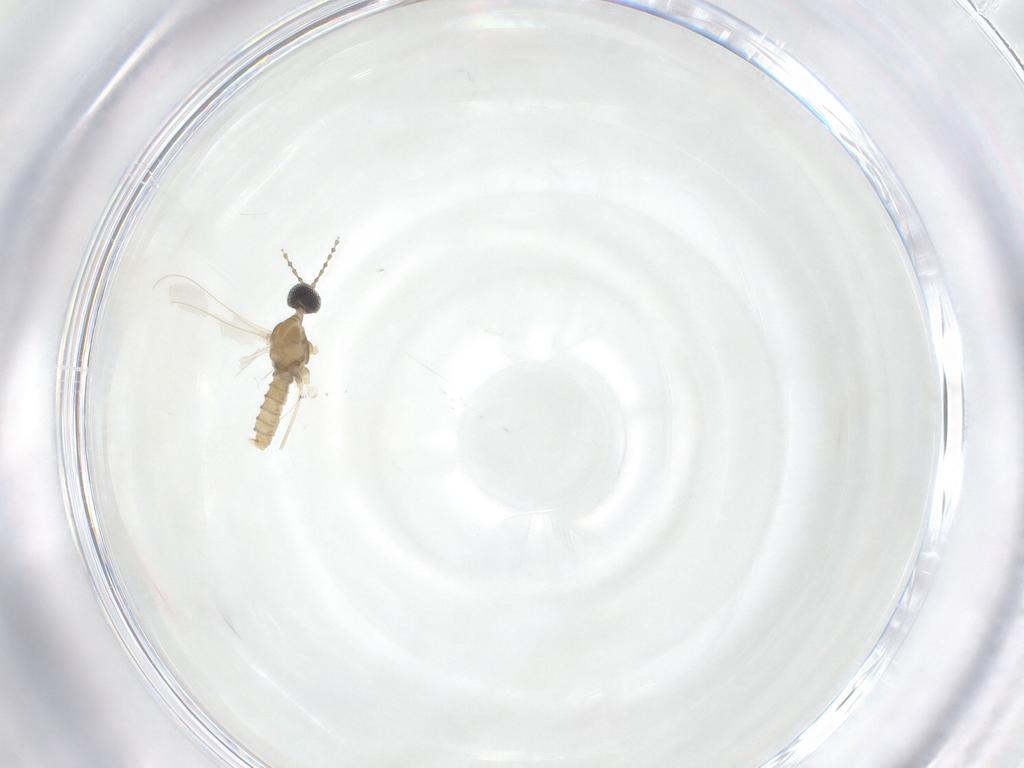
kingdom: Animalia
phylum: Arthropoda
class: Insecta
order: Diptera
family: Cecidomyiidae
